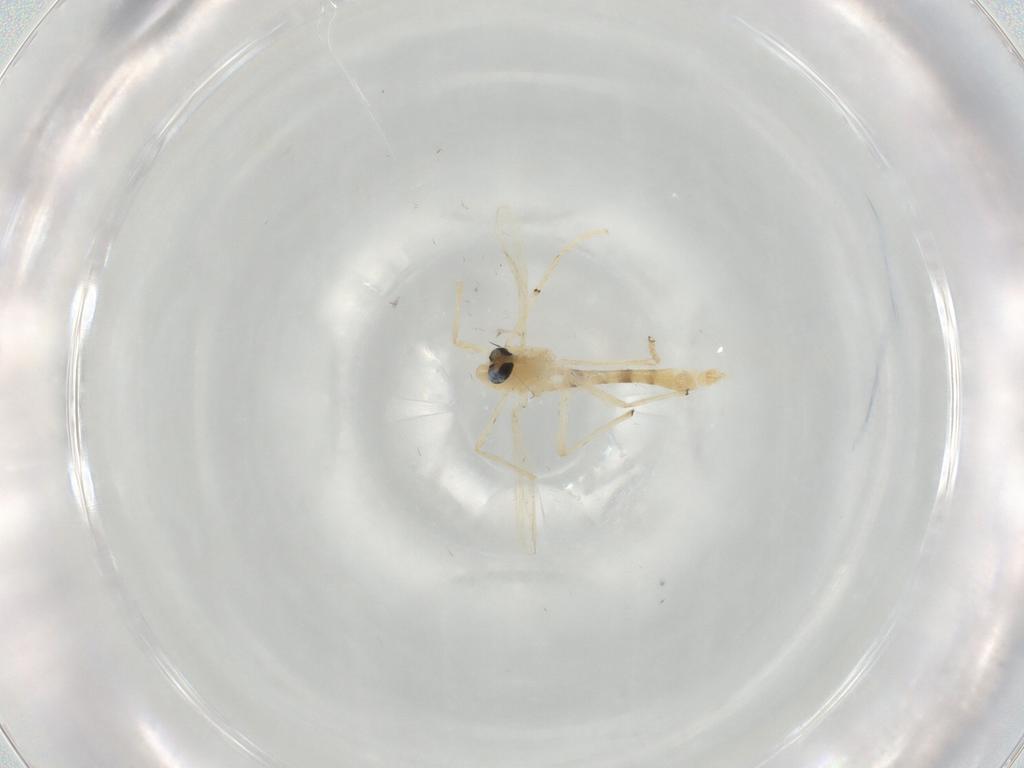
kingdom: Animalia
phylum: Arthropoda
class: Insecta
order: Diptera
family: Chironomidae
